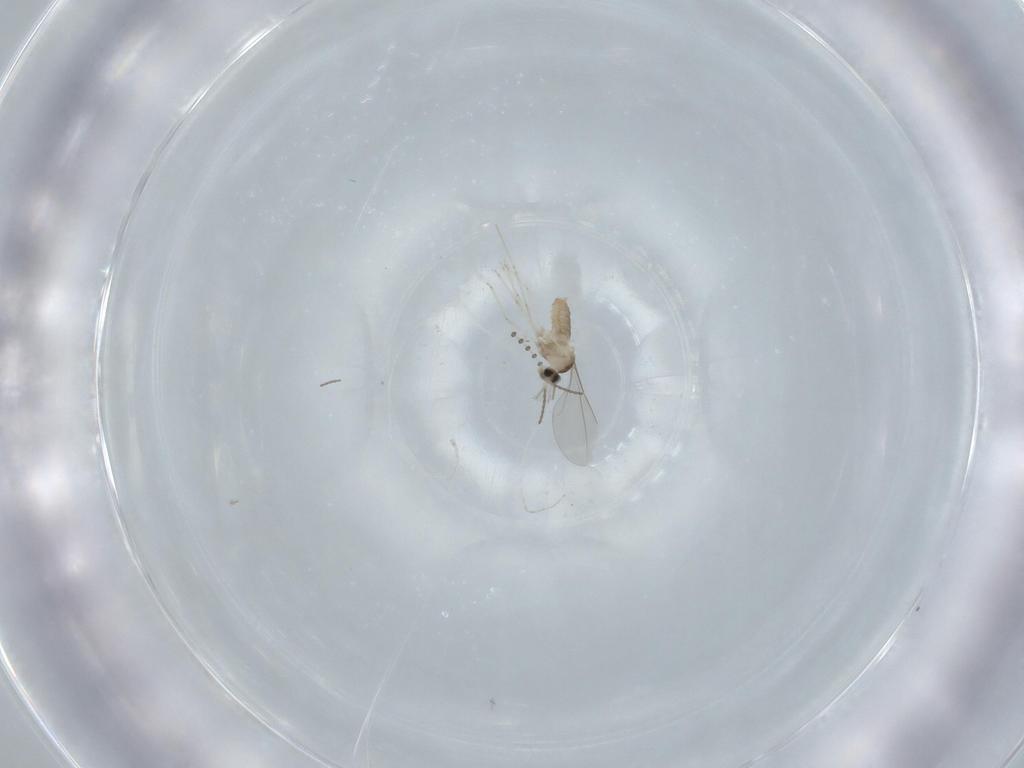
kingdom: Animalia
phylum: Arthropoda
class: Insecta
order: Diptera
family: Cecidomyiidae
